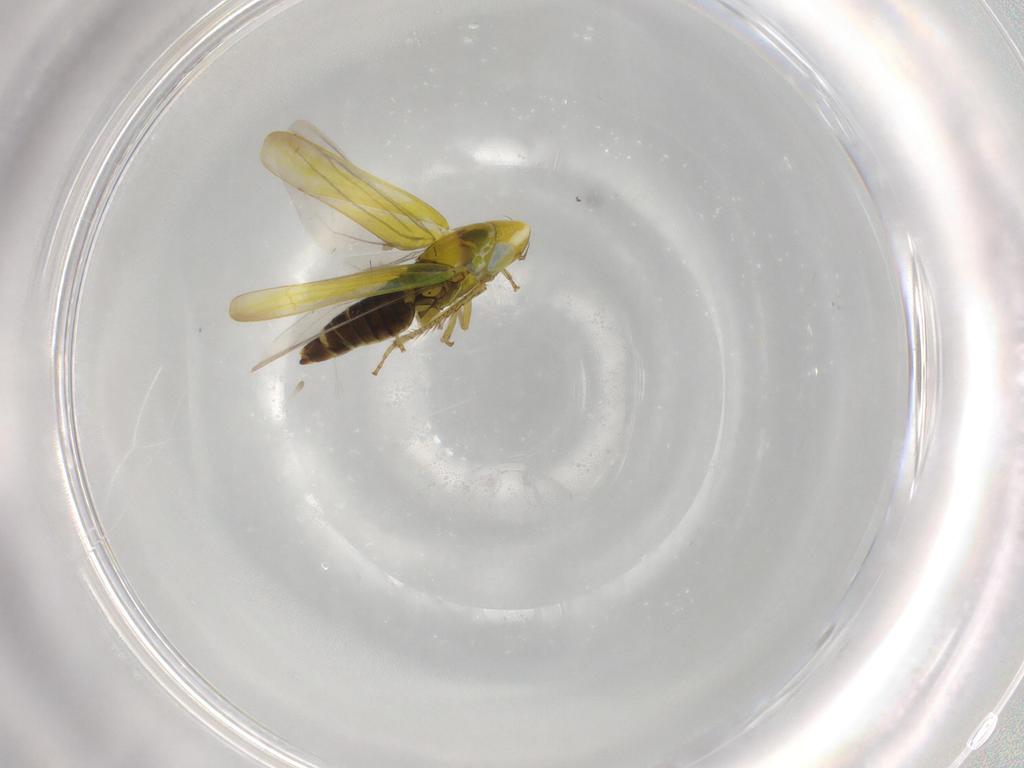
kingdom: Animalia
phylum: Arthropoda
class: Insecta
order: Hemiptera
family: Cicadellidae
